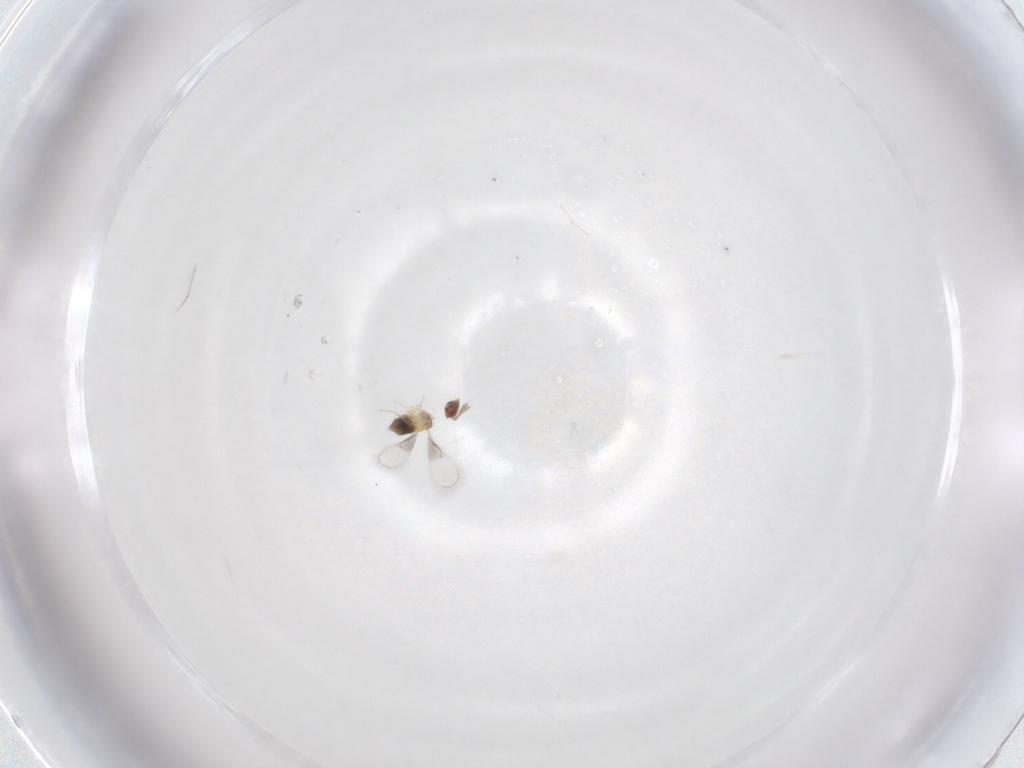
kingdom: Animalia
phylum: Arthropoda
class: Insecta
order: Hymenoptera
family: Trichogrammatidae
